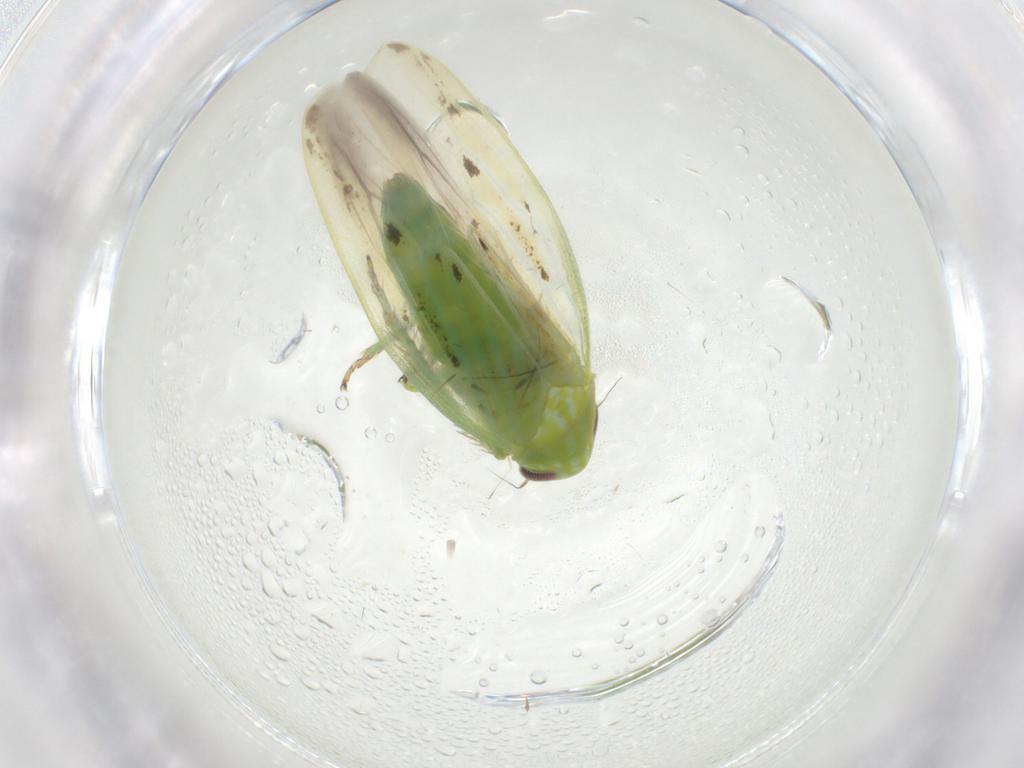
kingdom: Animalia
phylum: Arthropoda
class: Insecta
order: Hemiptera
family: Cicadellidae
